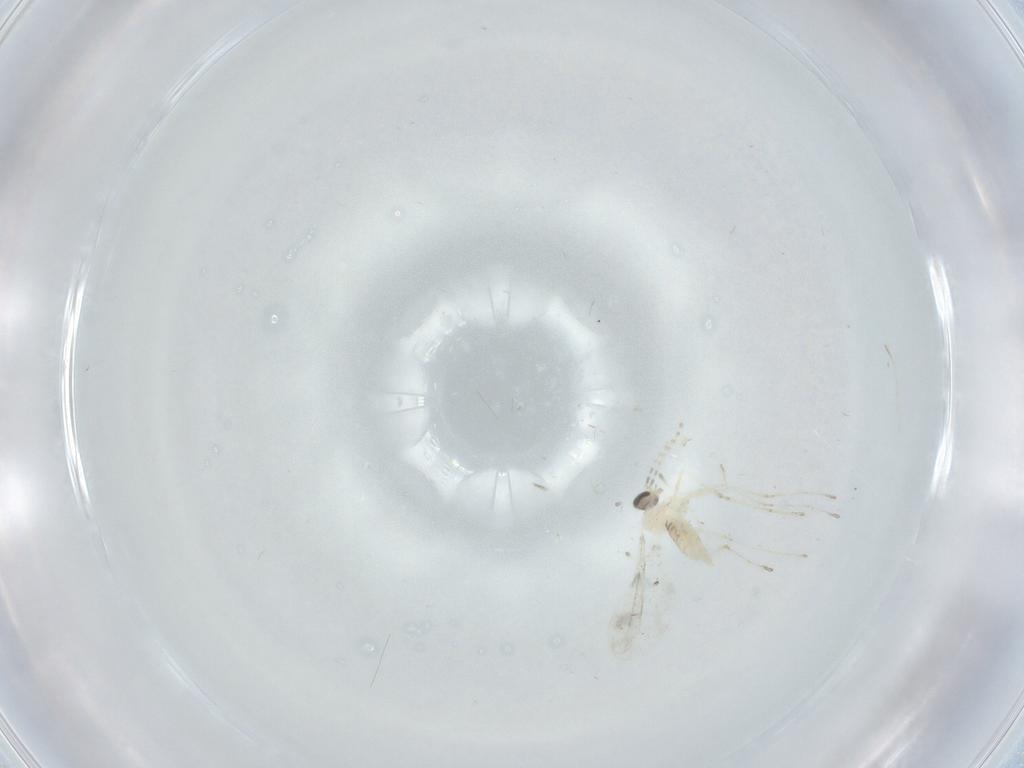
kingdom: Animalia
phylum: Arthropoda
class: Insecta
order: Diptera
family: Cecidomyiidae
